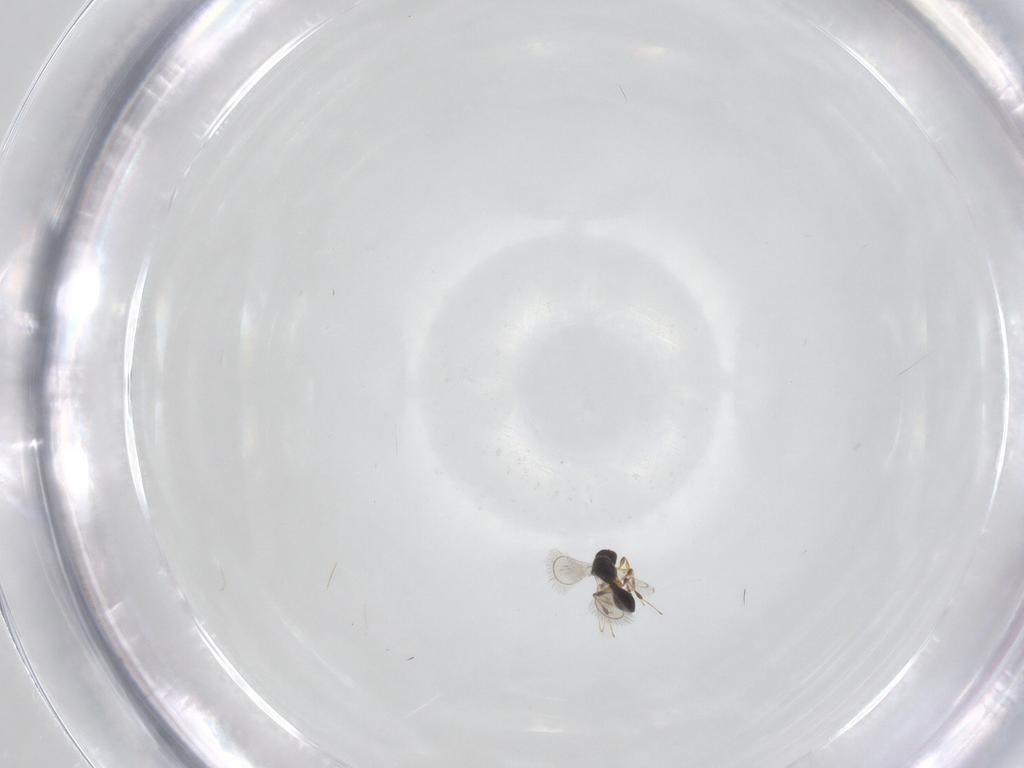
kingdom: Animalia
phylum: Arthropoda
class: Insecta
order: Hymenoptera
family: Platygastridae
